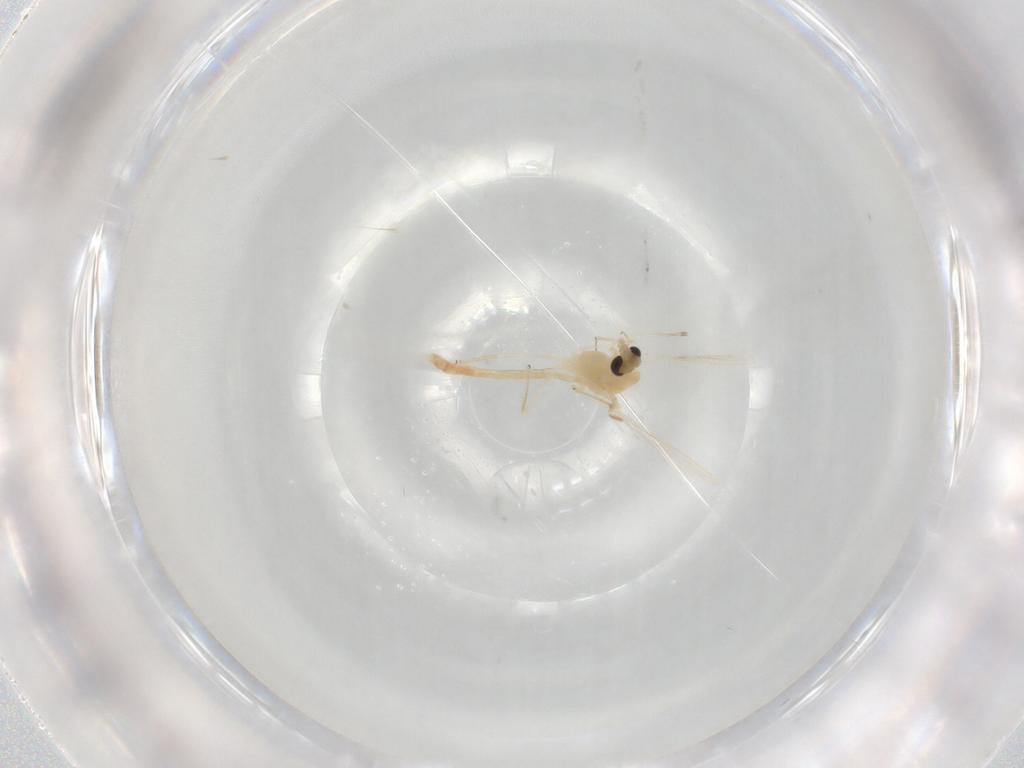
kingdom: Animalia
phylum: Arthropoda
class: Insecta
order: Diptera
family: Chironomidae
